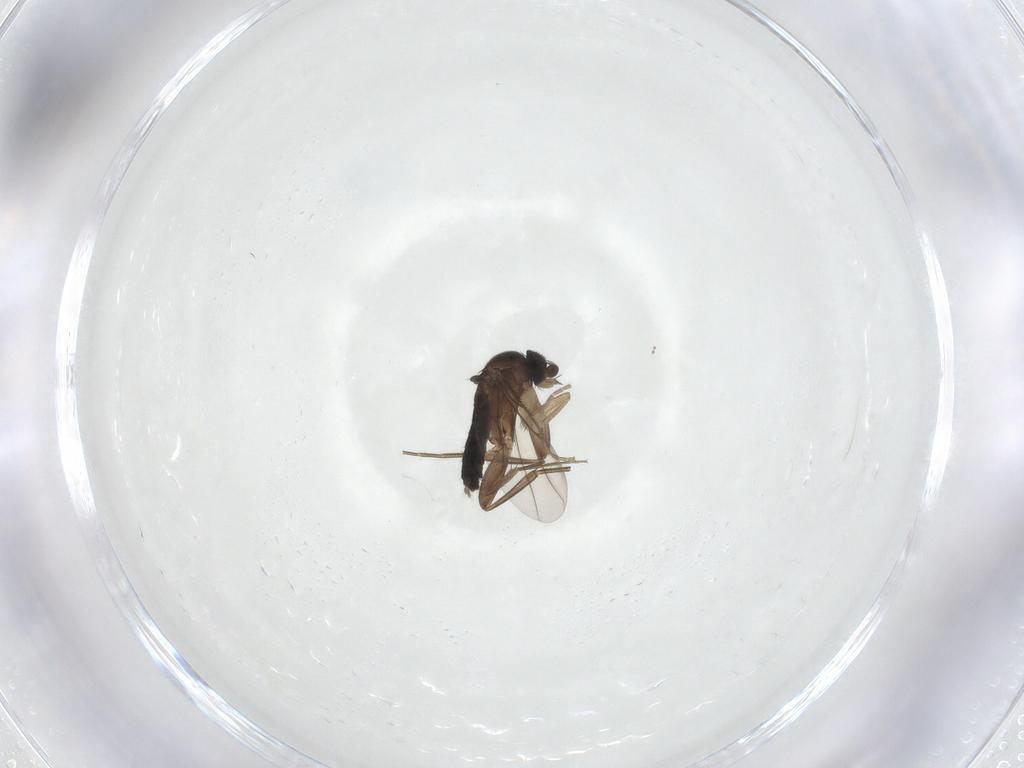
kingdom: Animalia
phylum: Arthropoda
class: Insecta
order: Diptera
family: Phoridae
